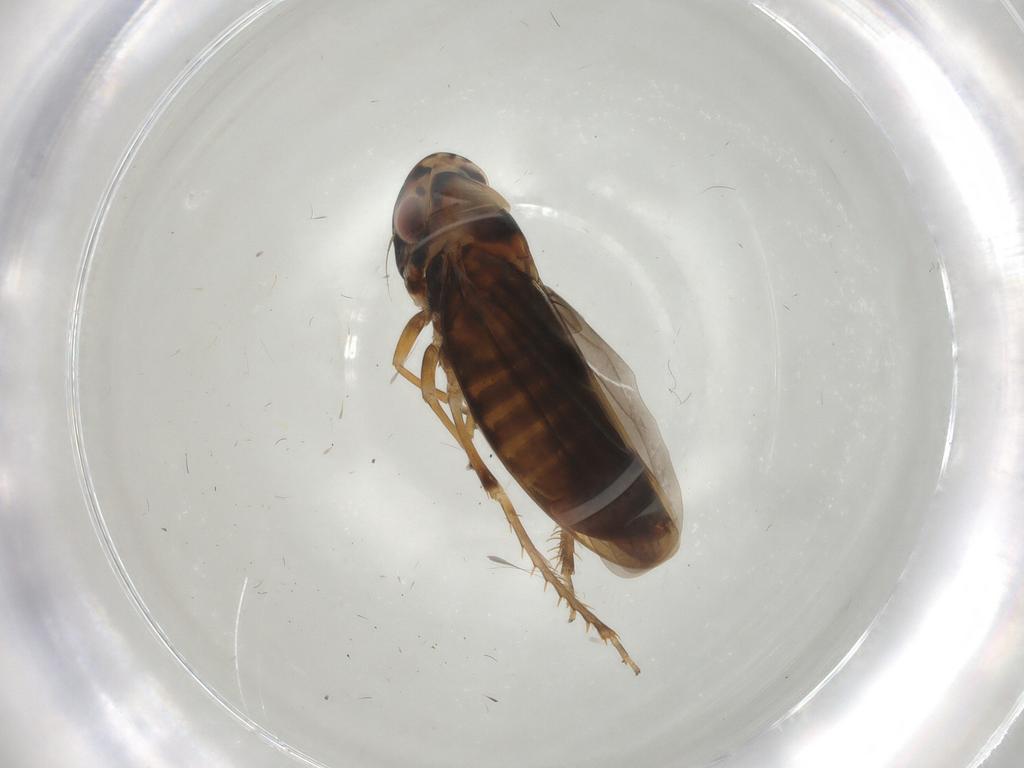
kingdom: Animalia
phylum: Arthropoda
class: Insecta
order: Hemiptera
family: Cicadellidae
